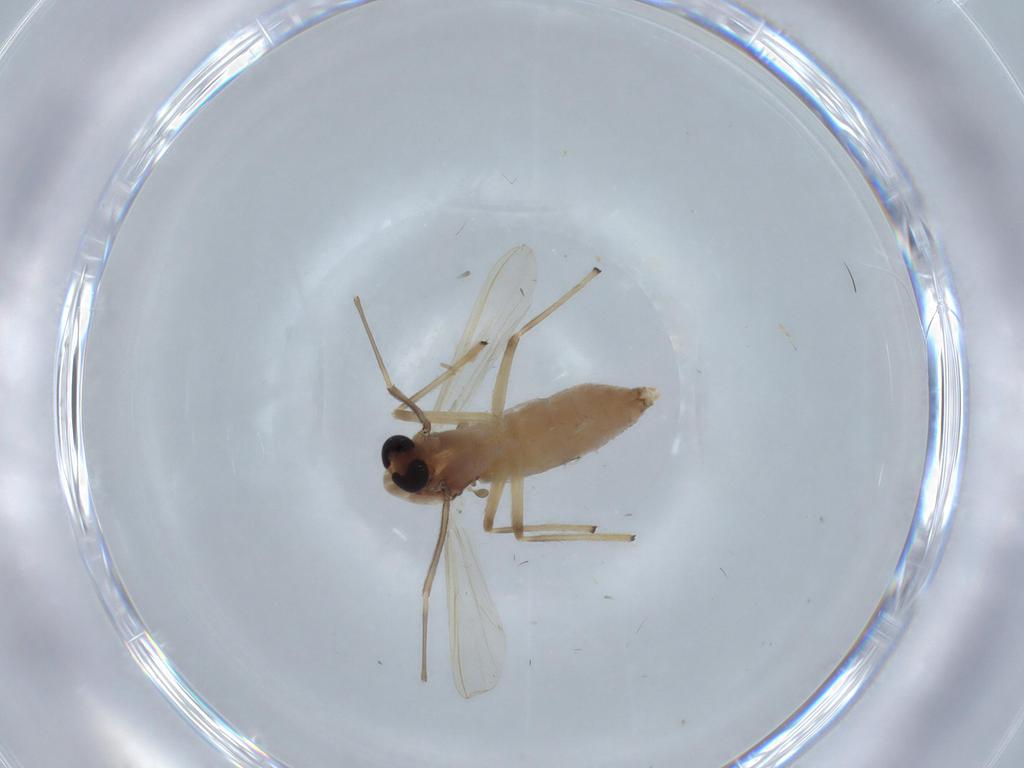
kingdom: Animalia
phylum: Arthropoda
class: Insecta
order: Diptera
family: Chironomidae
